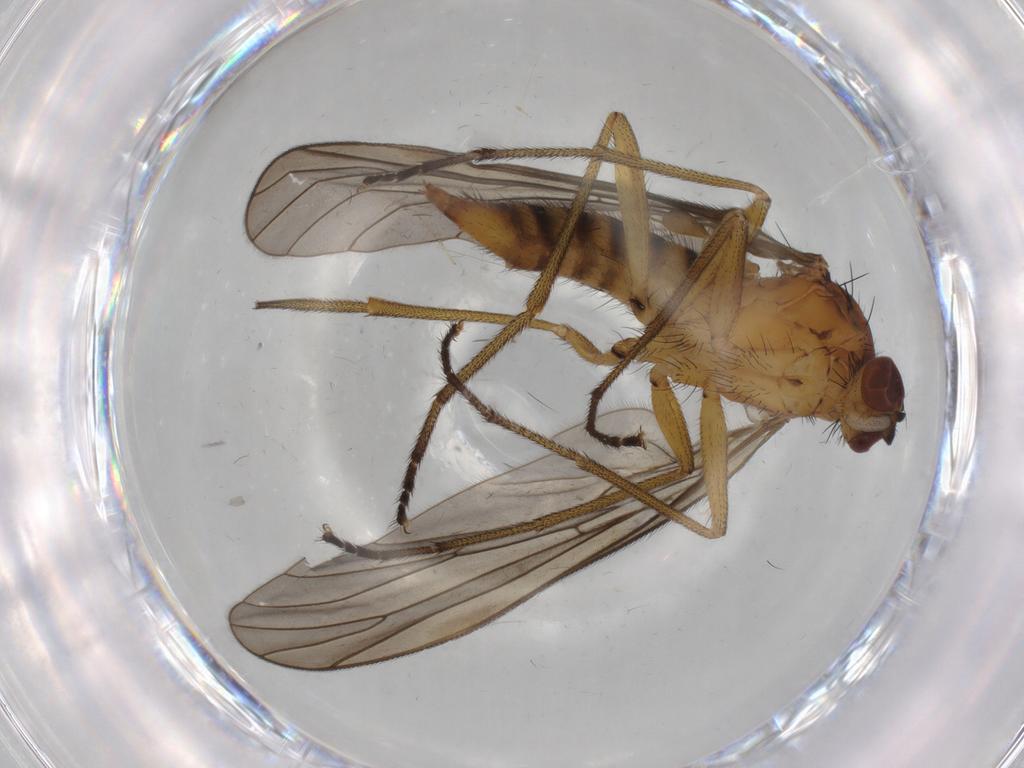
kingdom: Animalia
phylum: Arthropoda
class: Insecta
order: Diptera
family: Brachystomatidae
